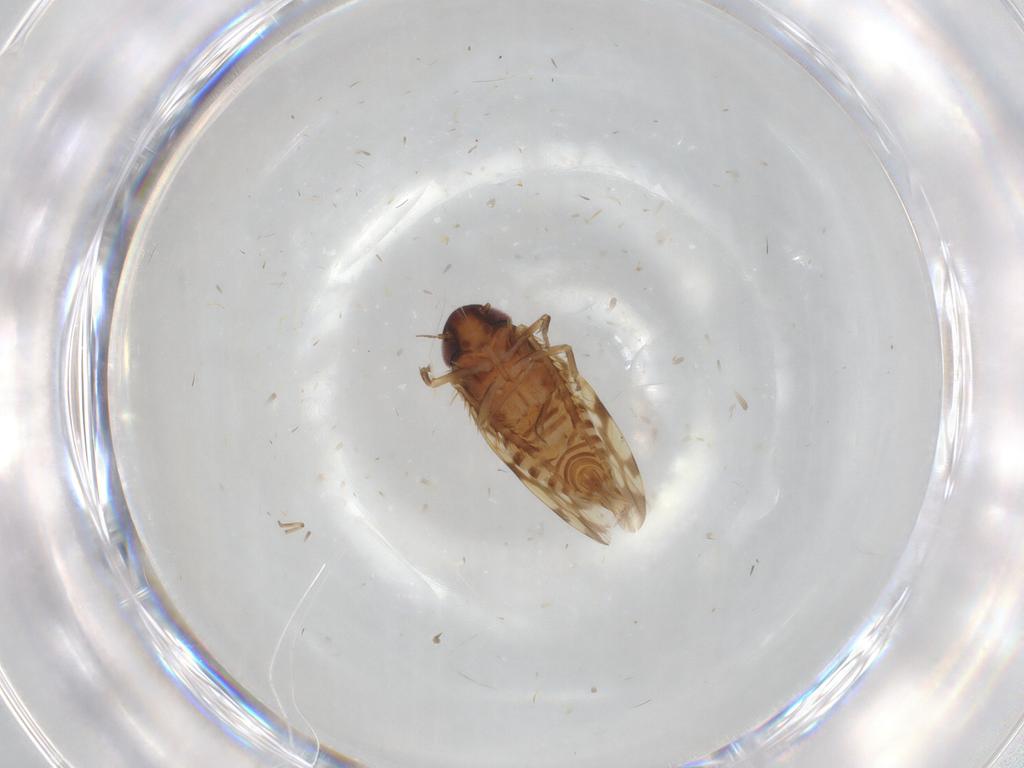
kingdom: Animalia
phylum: Arthropoda
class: Insecta
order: Hemiptera
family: Cicadellidae
